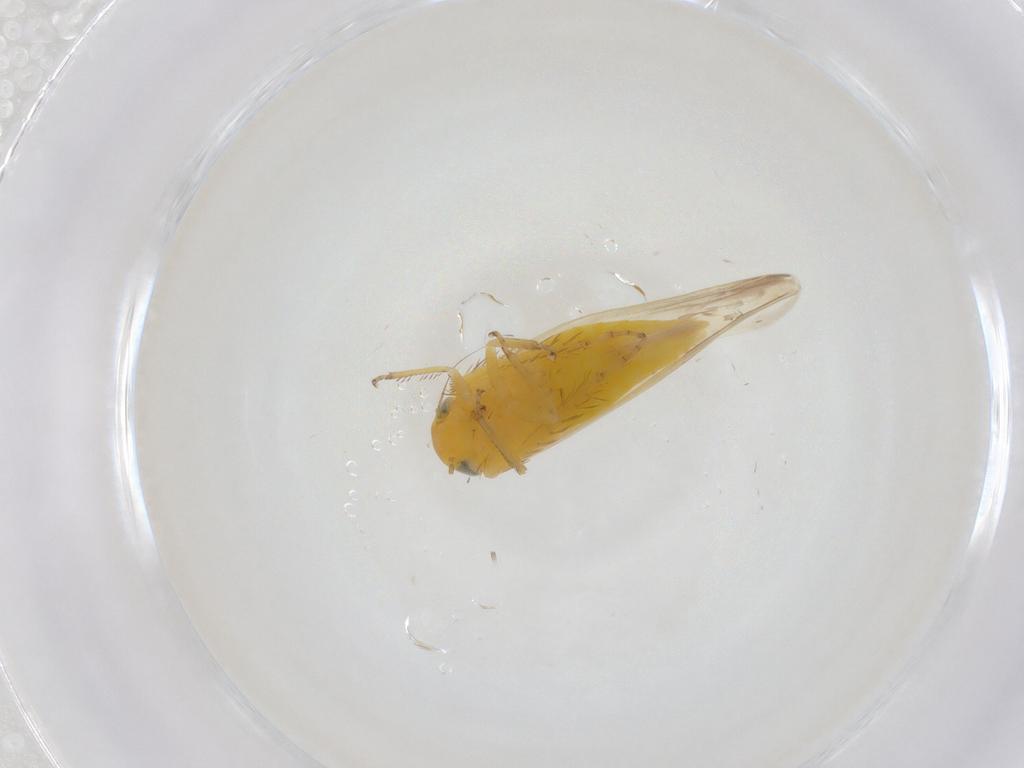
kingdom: Animalia
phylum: Arthropoda
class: Insecta
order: Hemiptera
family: Cicadellidae
